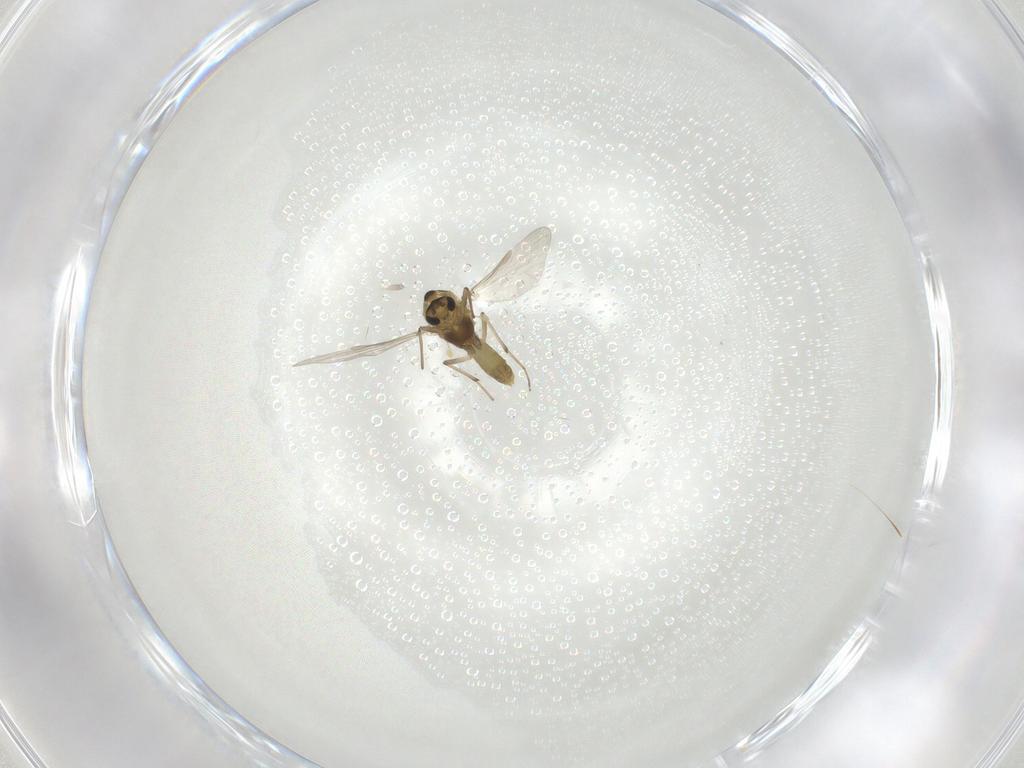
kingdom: Animalia
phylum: Arthropoda
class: Insecta
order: Diptera
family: Chironomidae
